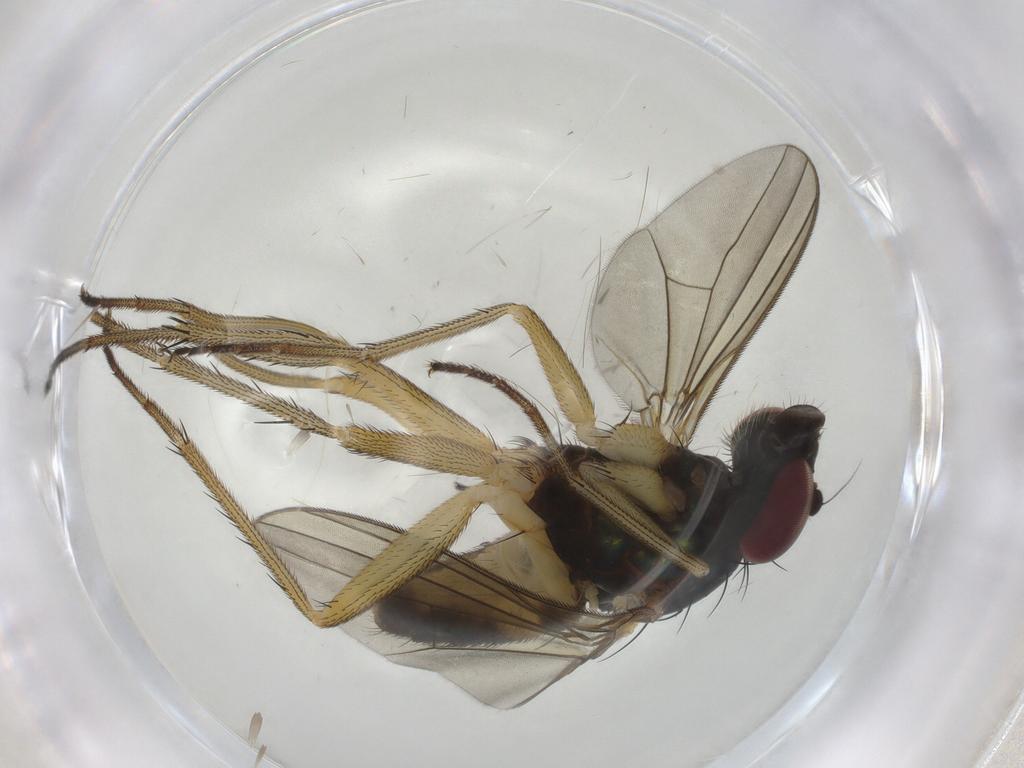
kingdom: Animalia
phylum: Arthropoda
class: Insecta
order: Diptera
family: Dolichopodidae
